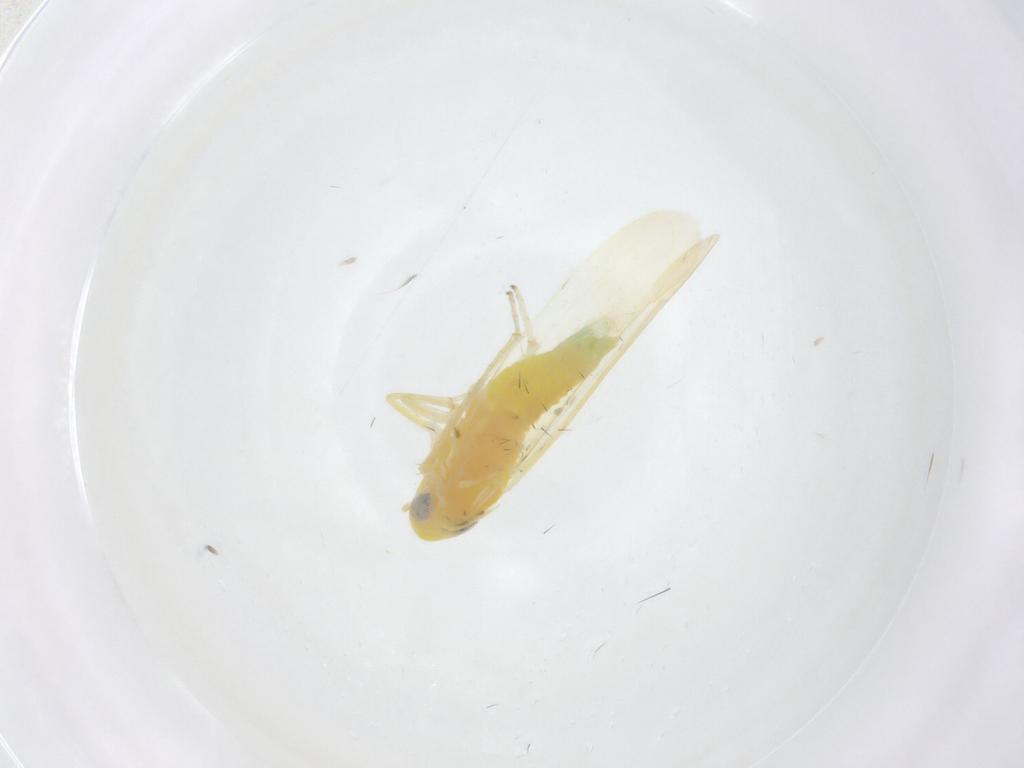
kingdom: Animalia
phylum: Arthropoda
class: Insecta
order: Hemiptera
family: Cicadellidae
